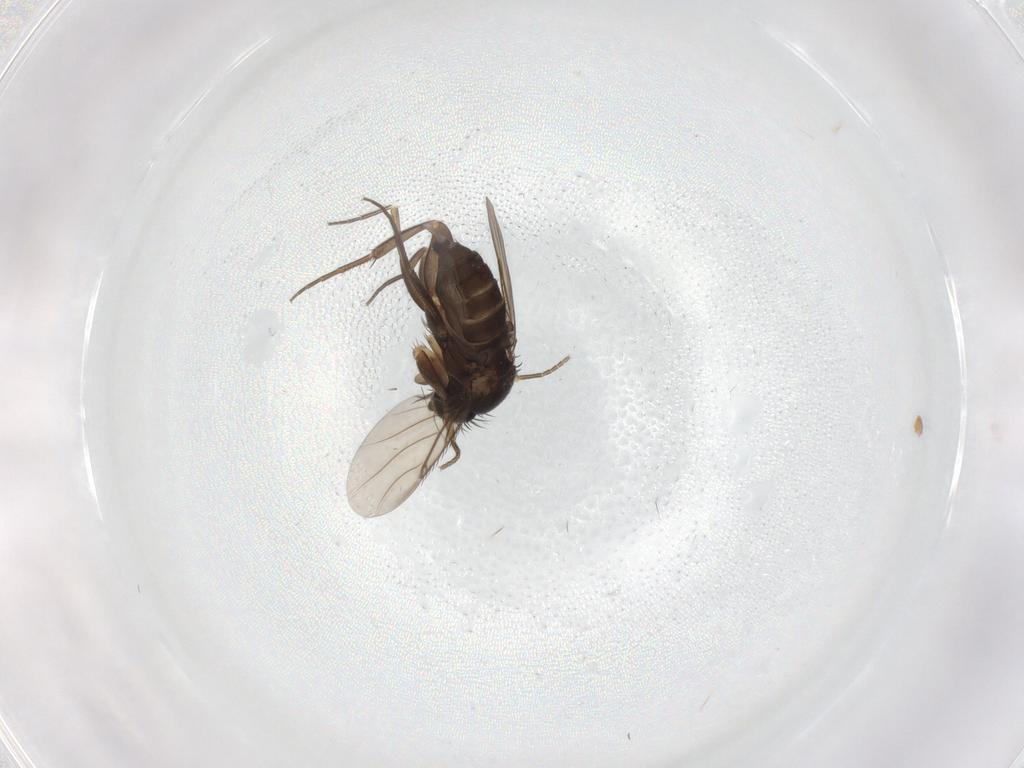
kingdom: Animalia
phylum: Arthropoda
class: Insecta
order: Diptera
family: Phoridae
